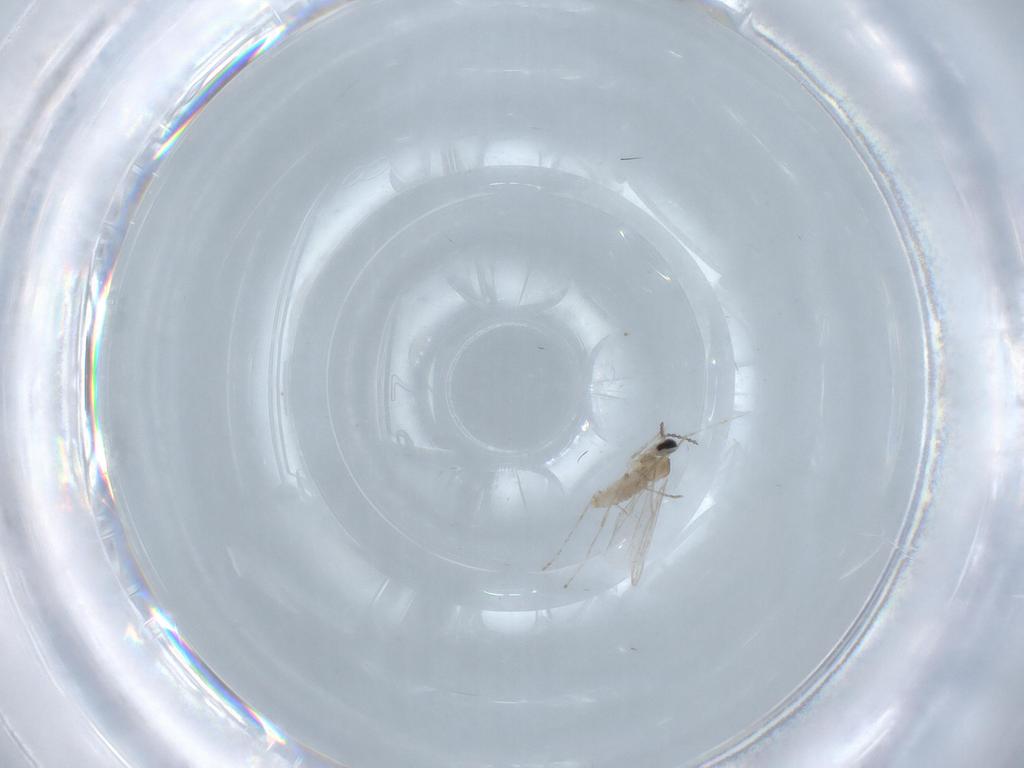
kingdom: Animalia
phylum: Arthropoda
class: Insecta
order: Diptera
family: Cecidomyiidae
